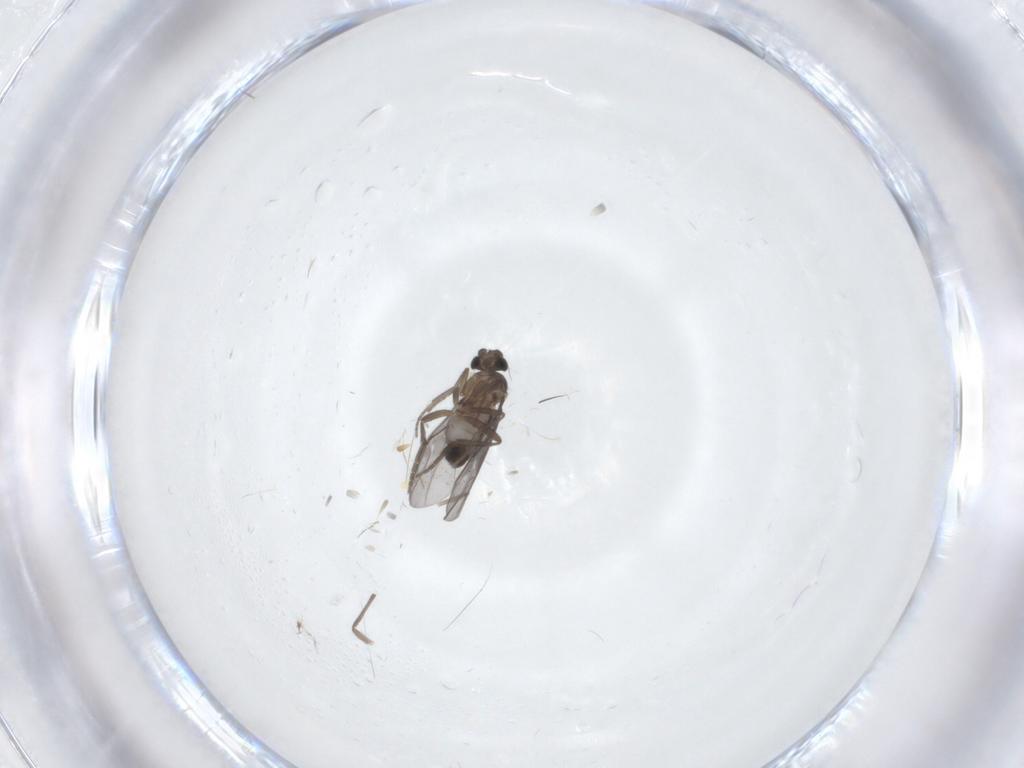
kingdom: Animalia
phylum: Arthropoda
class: Insecta
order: Diptera
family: Chironomidae
